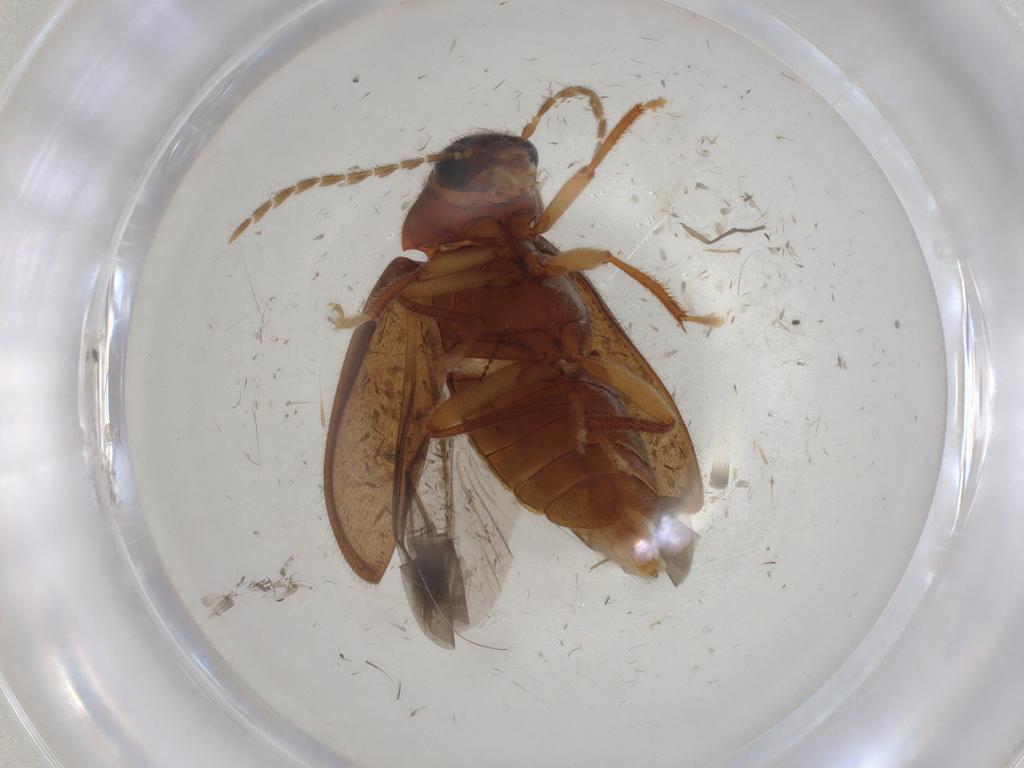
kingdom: Animalia
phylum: Arthropoda
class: Insecta
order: Coleoptera
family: Ptilodactylidae
